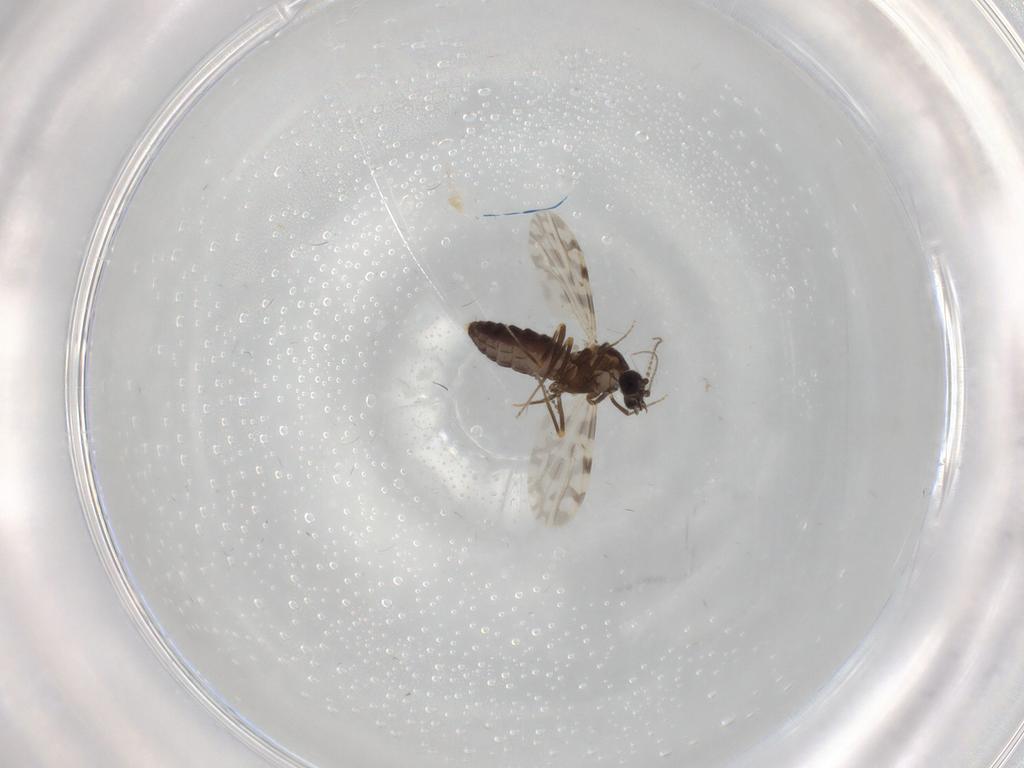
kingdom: Animalia
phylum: Arthropoda
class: Insecta
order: Diptera
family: Ceratopogonidae
